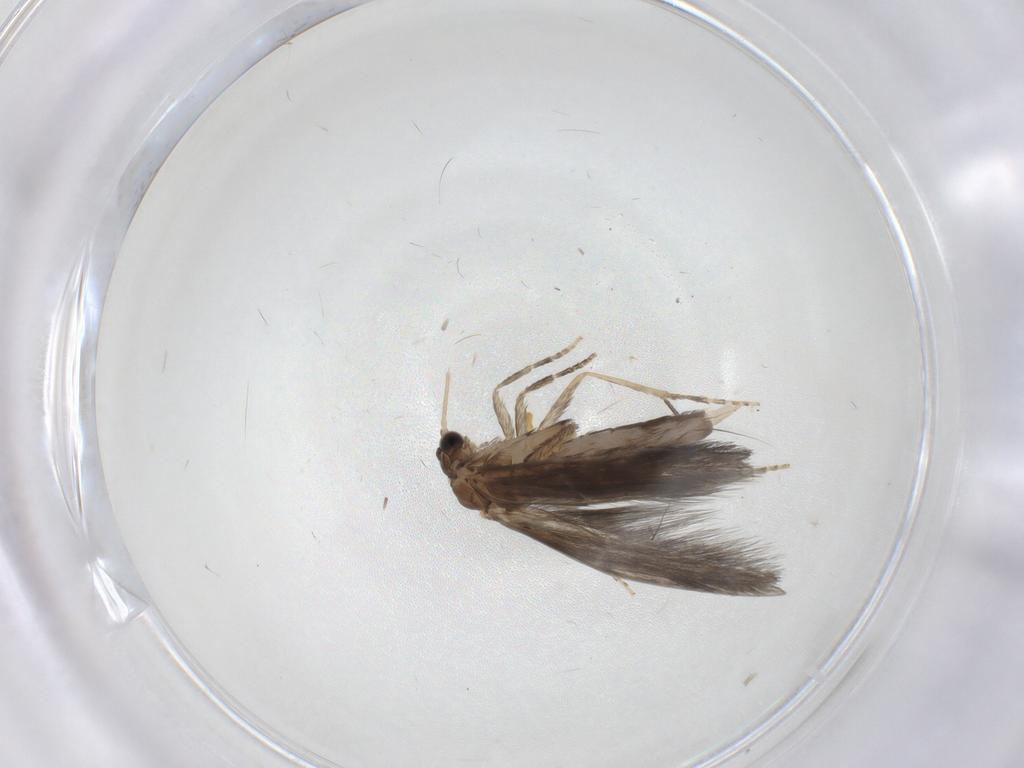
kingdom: Animalia
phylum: Arthropoda
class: Insecta
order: Trichoptera
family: Hydroptilidae
